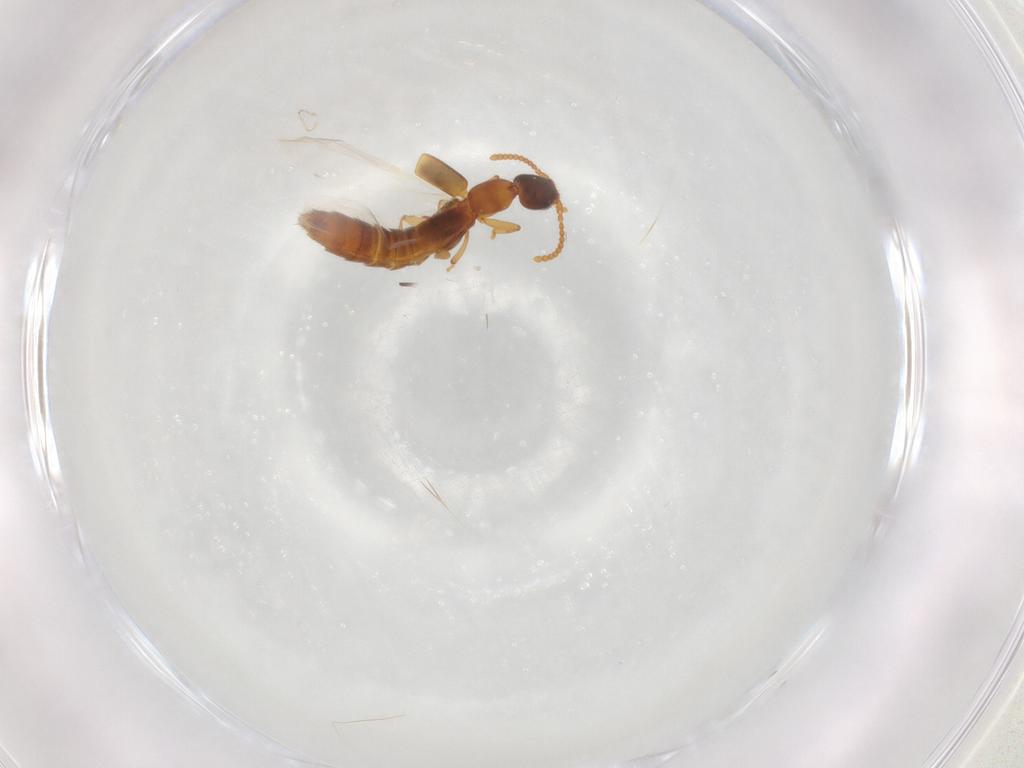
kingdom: Animalia
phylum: Arthropoda
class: Insecta
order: Coleoptera
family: Staphylinidae
